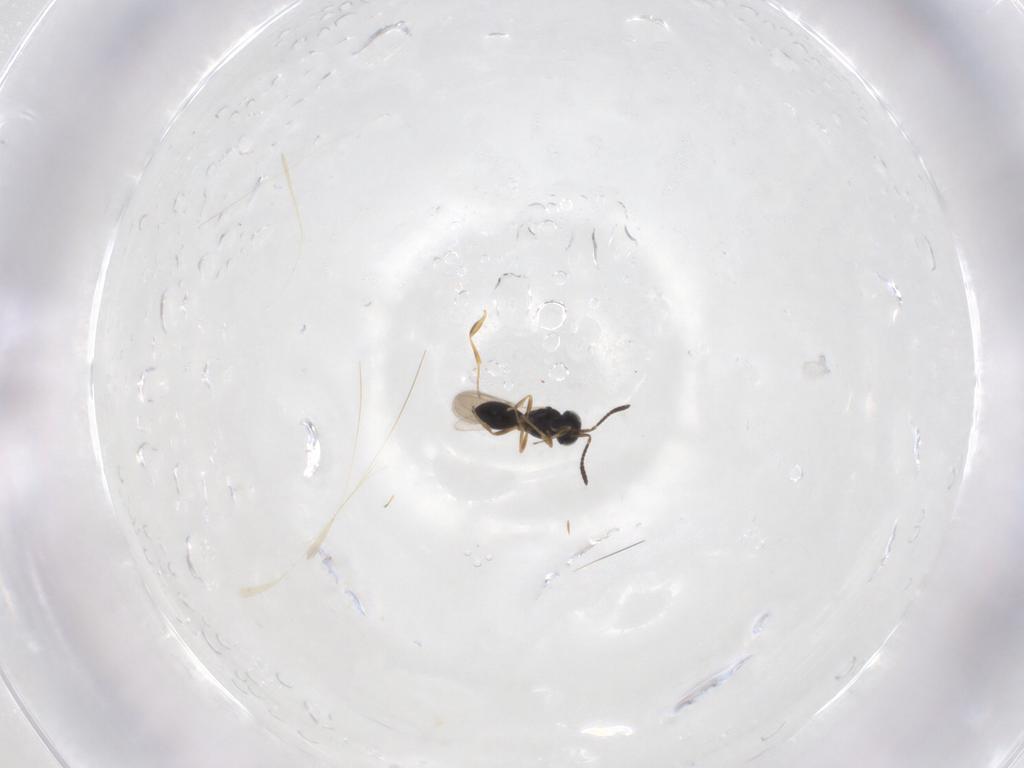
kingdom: Animalia
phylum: Arthropoda
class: Insecta
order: Hymenoptera
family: Scelionidae
